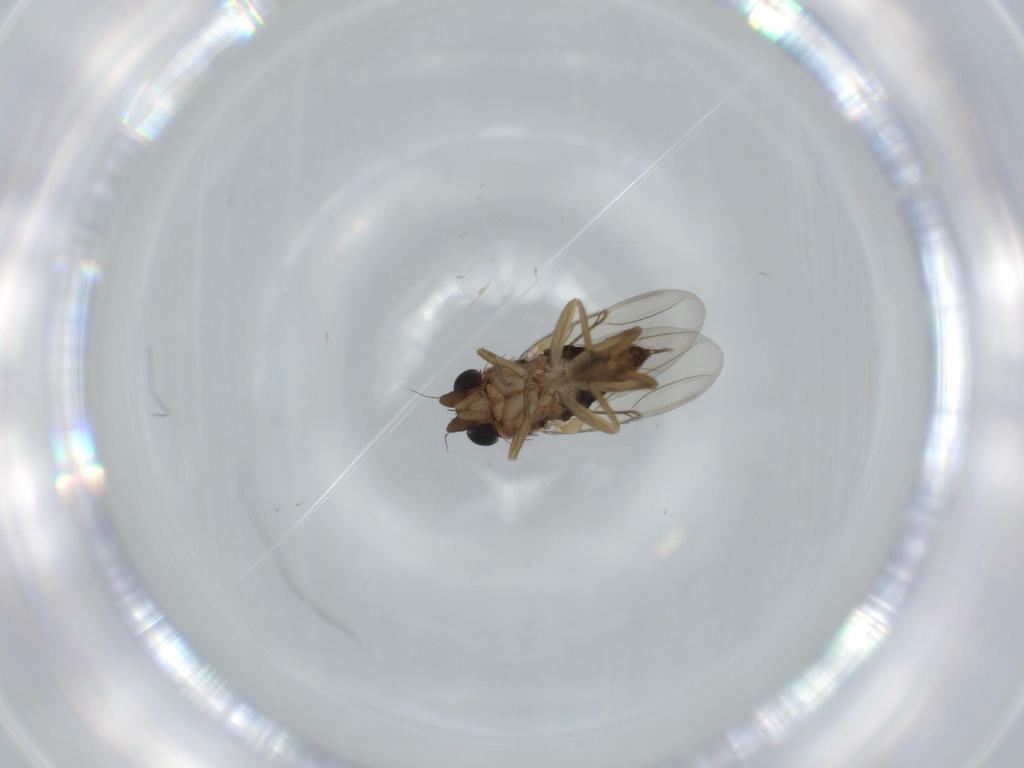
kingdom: Animalia
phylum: Arthropoda
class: Insecta
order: Diptera
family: Phoridae
